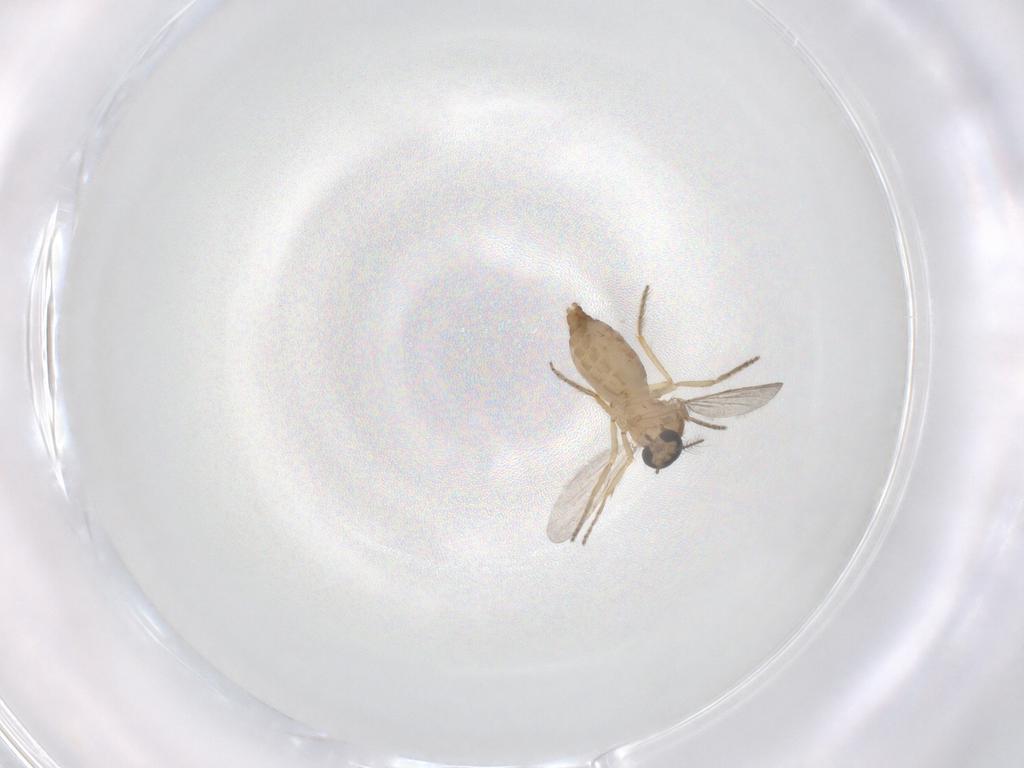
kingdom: Animalia
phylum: Arthropoda
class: Insecta
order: Diptera
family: Ceratopogonidae
